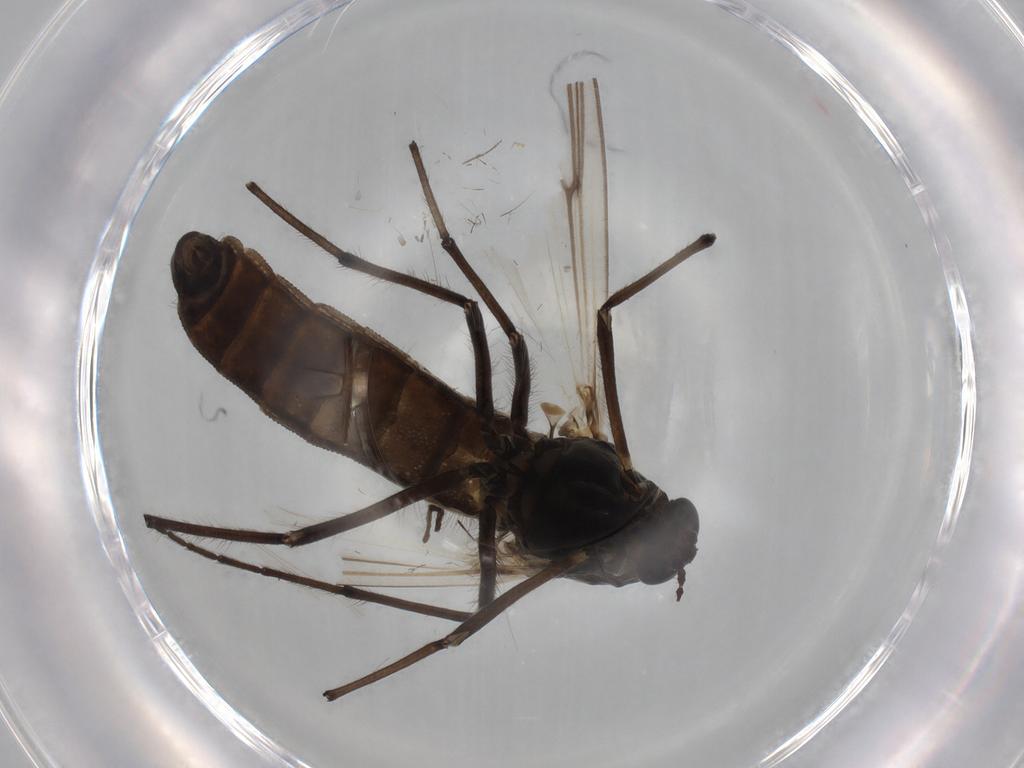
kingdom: Animalia
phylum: Arthropoda
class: Insecta
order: Diptera
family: Chironomidae
